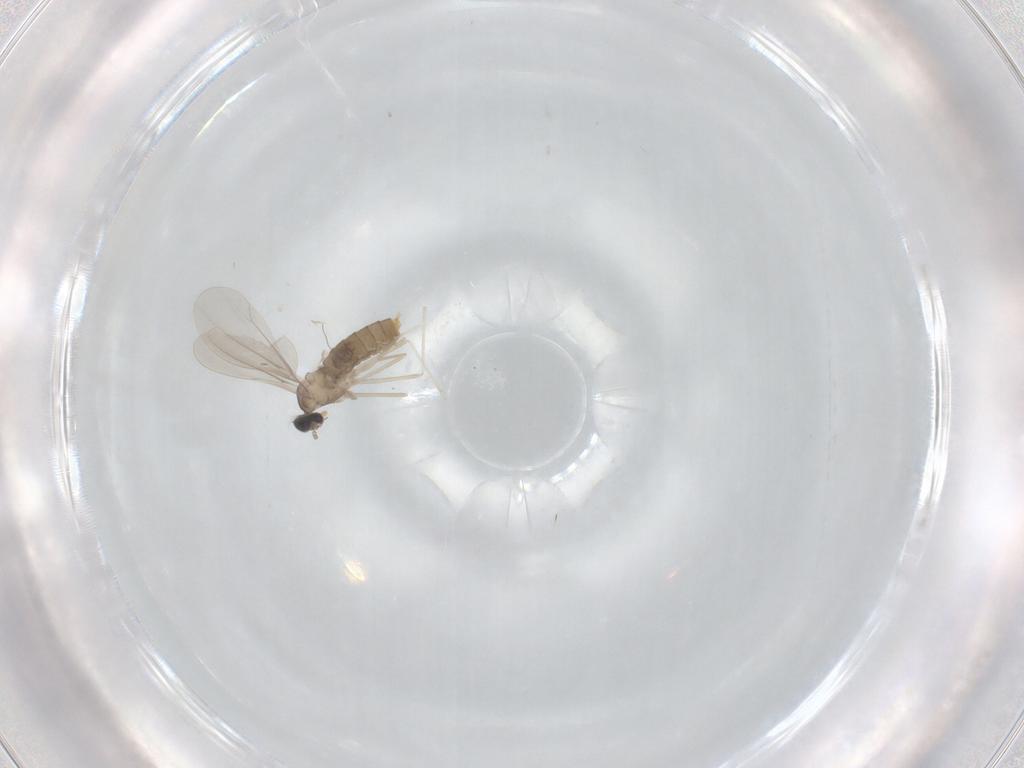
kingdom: Animalia
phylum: Arthropoda
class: Insecta
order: Diptera
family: Cecidomyiidae
